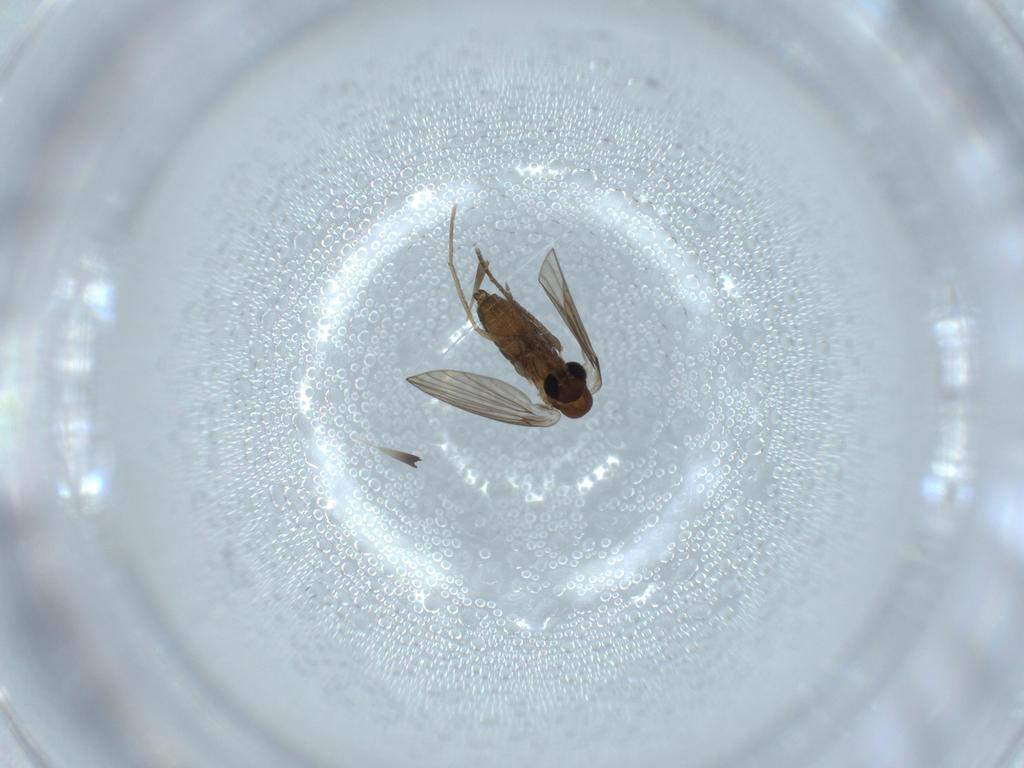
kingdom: Animalia
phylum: Arthropoda
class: Insecta
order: Diptera
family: Psychodidae
